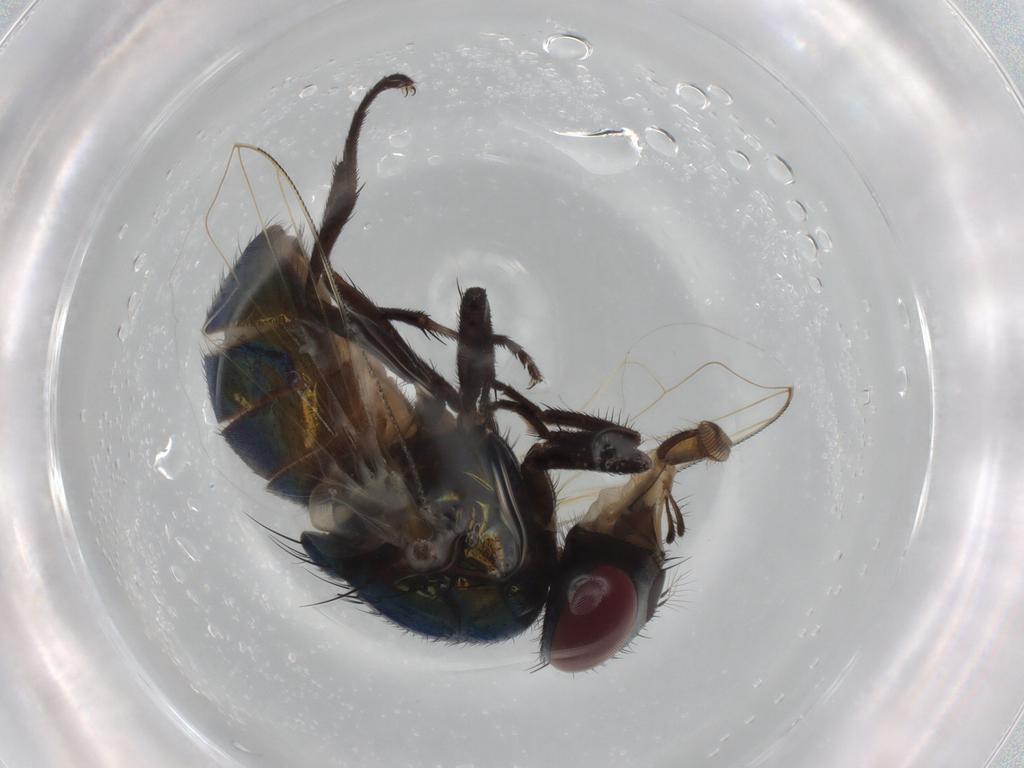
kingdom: Animalia
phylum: Arthropoda
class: Insecta
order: Diptera
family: Muscidae
